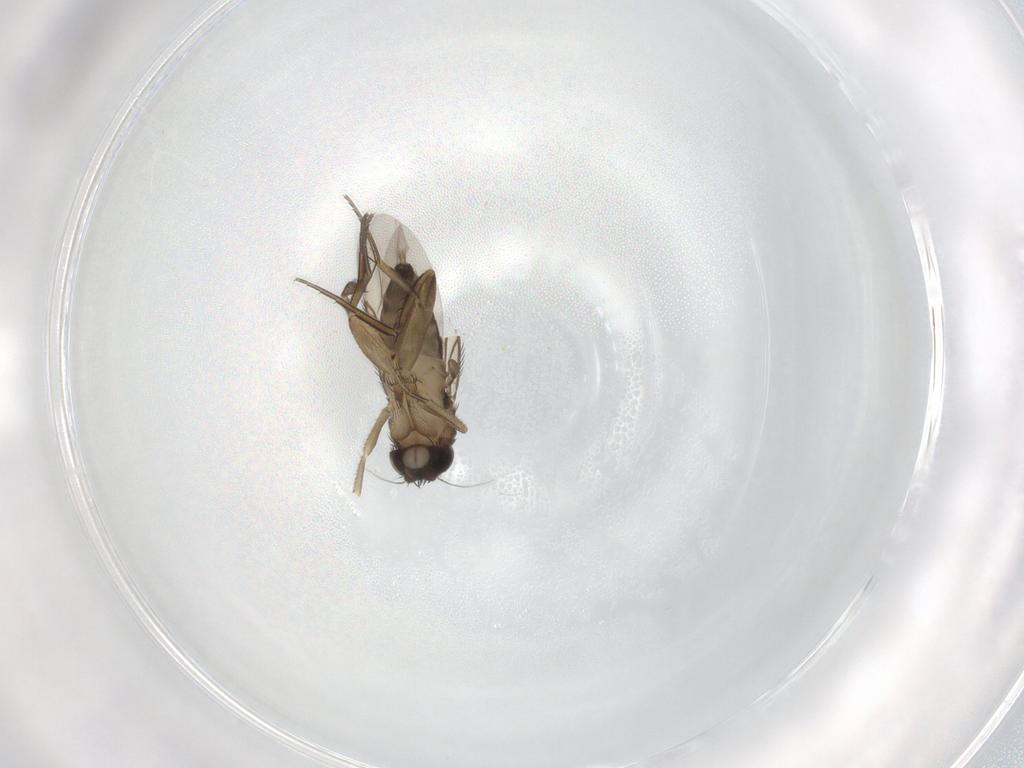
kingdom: Animalia
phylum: Arthropoda
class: Insecta
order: Diptera
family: Phoridae
